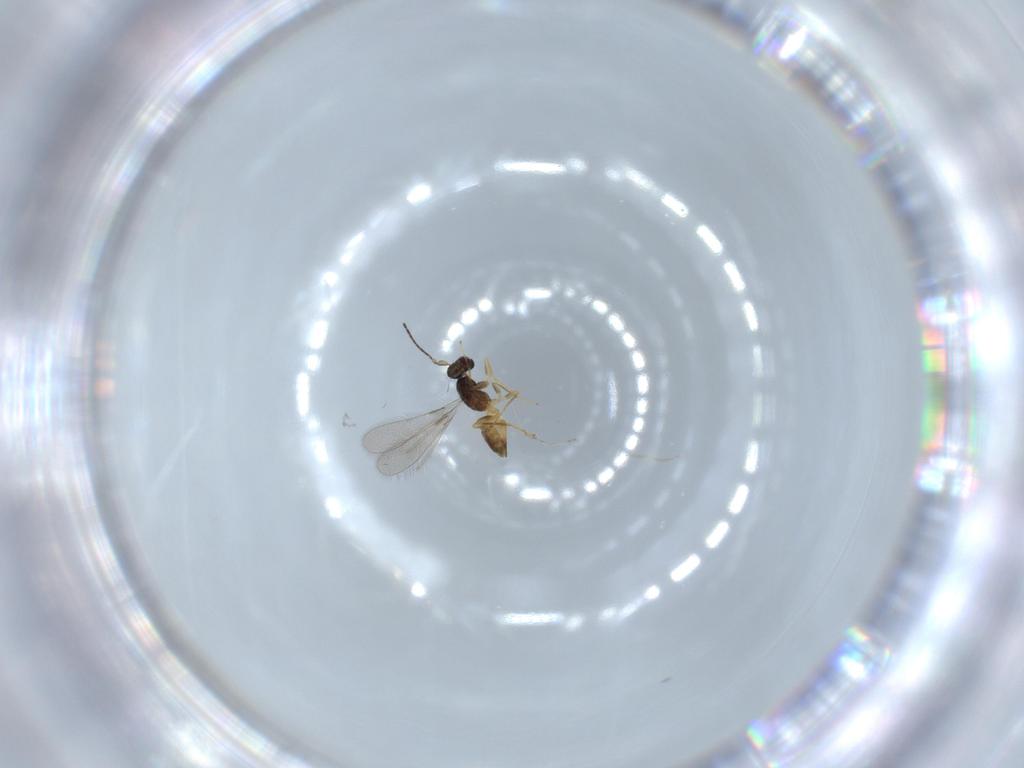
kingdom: Animalia
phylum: Arthropoda
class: Insecta
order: Hymenoptera
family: Mymaridae
